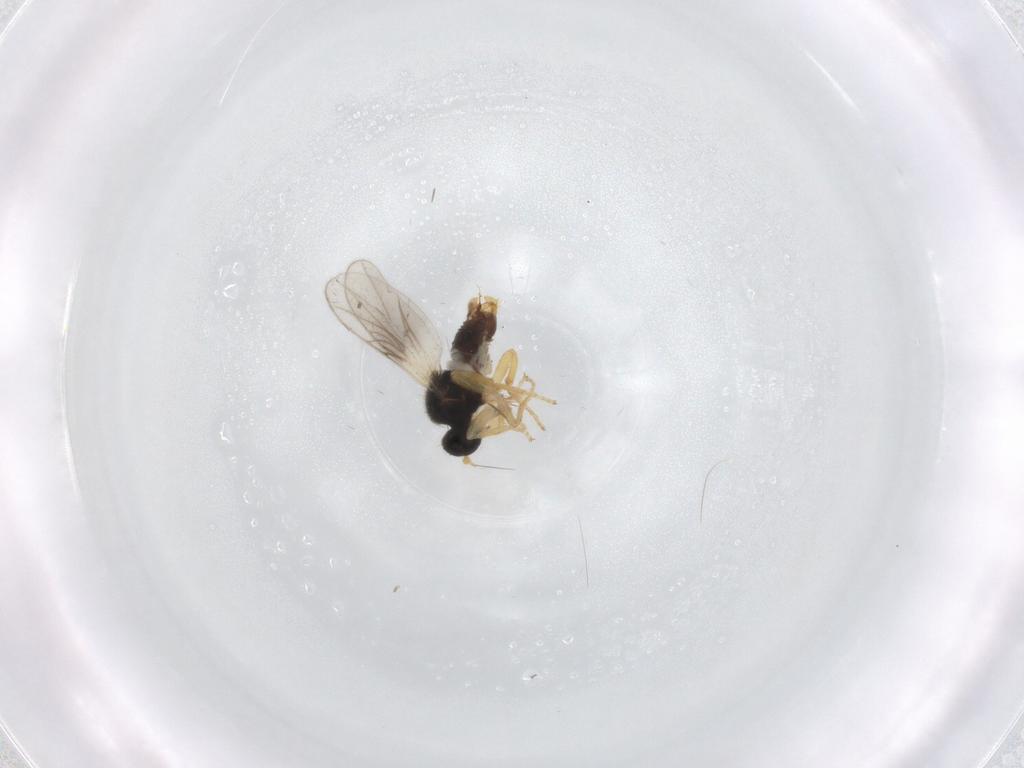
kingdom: Animalia
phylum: Arthropoda
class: Insecta
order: Diptera
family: Hybotidae
